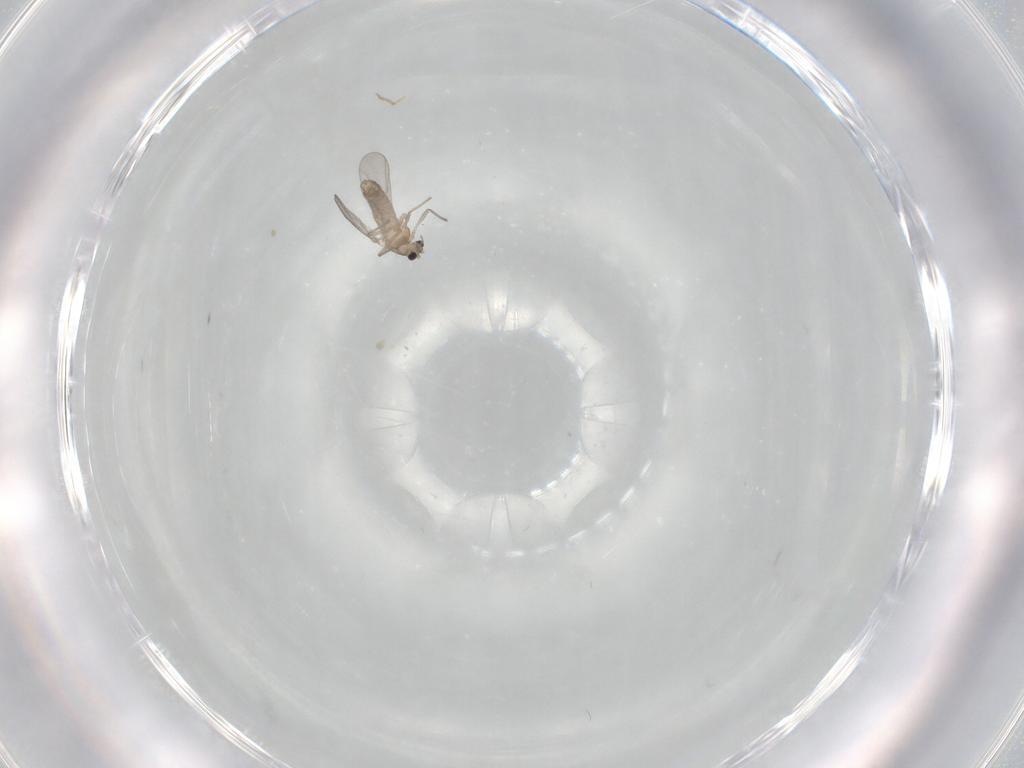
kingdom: Animalia
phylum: Arthropoda
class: Insecta
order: Diptera
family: Chironomidae
